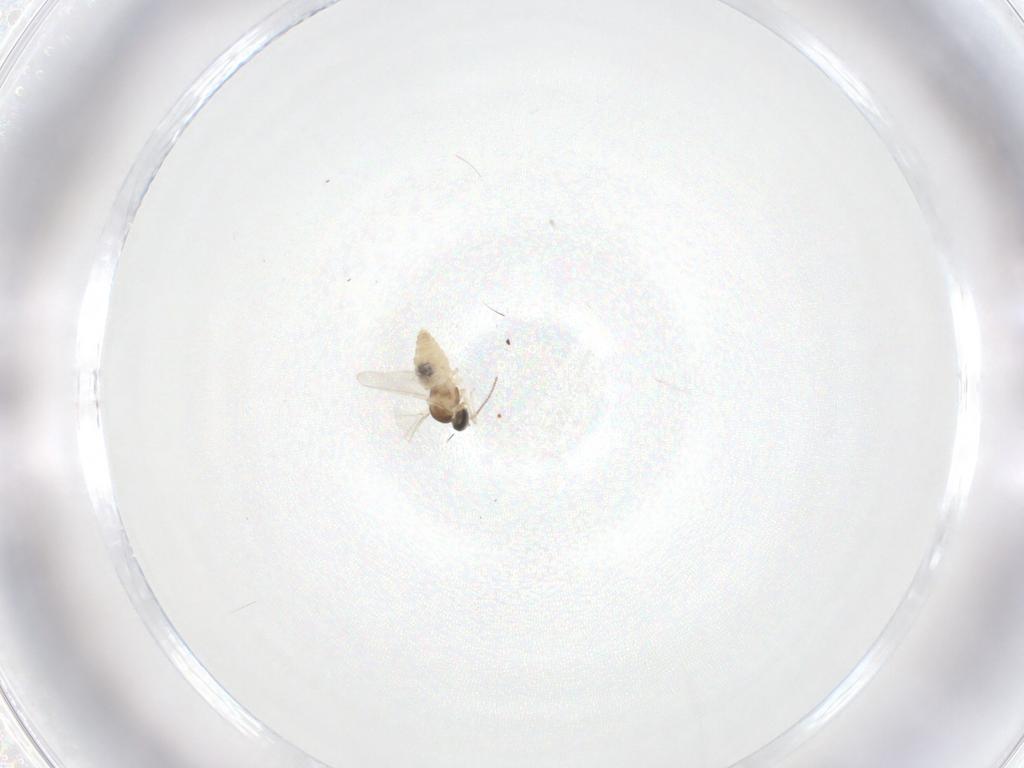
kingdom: Animalia
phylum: Arthropoda
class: Insecta
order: Diptera
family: Cecidomyiidae
